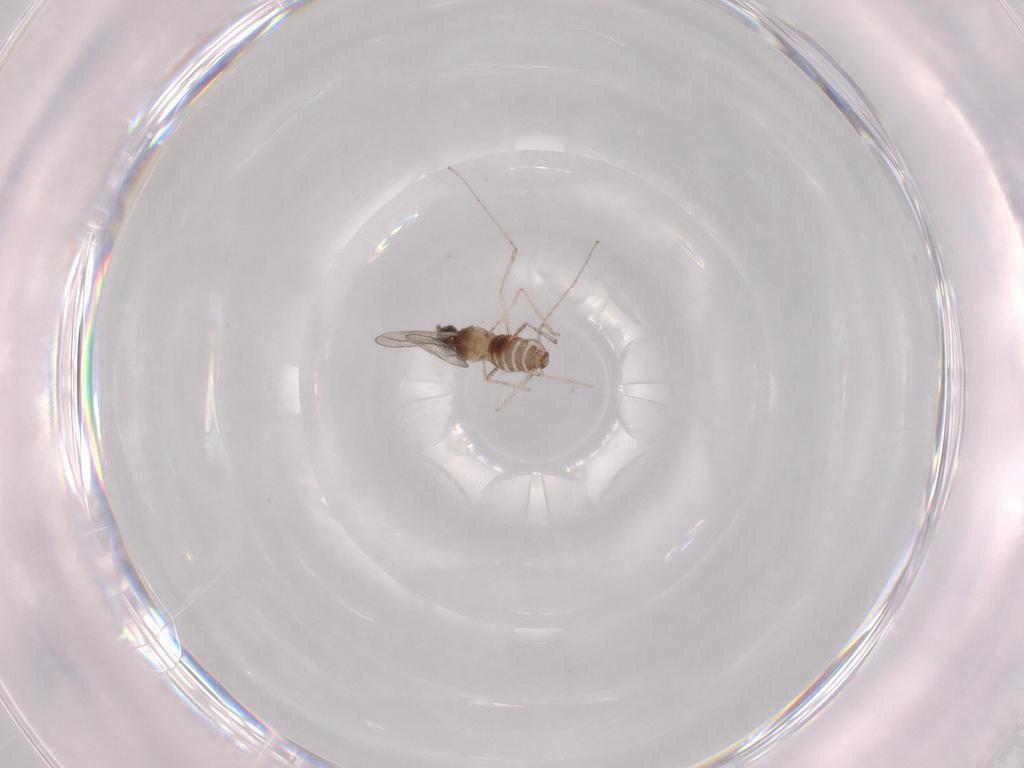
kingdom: Animalia
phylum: Arthropoda
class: Insecta
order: Diptera
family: Cecidomyiidae
